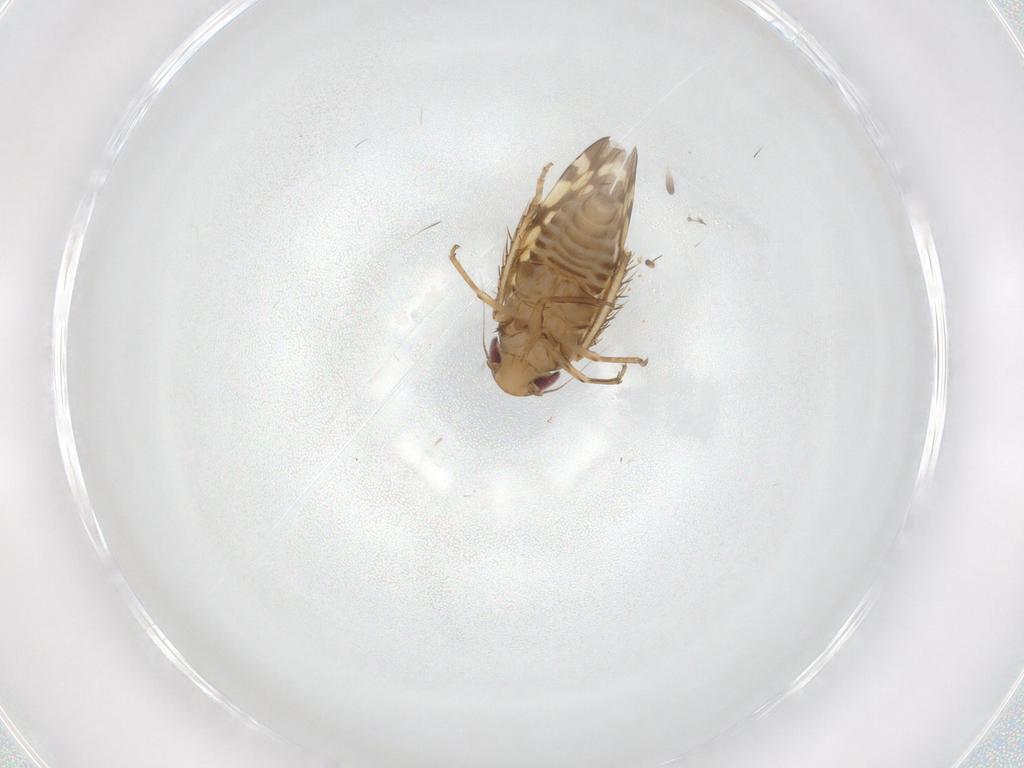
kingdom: Animalia
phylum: Arthropoda
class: Insecta
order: Hemiptera
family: Cicadellidae
